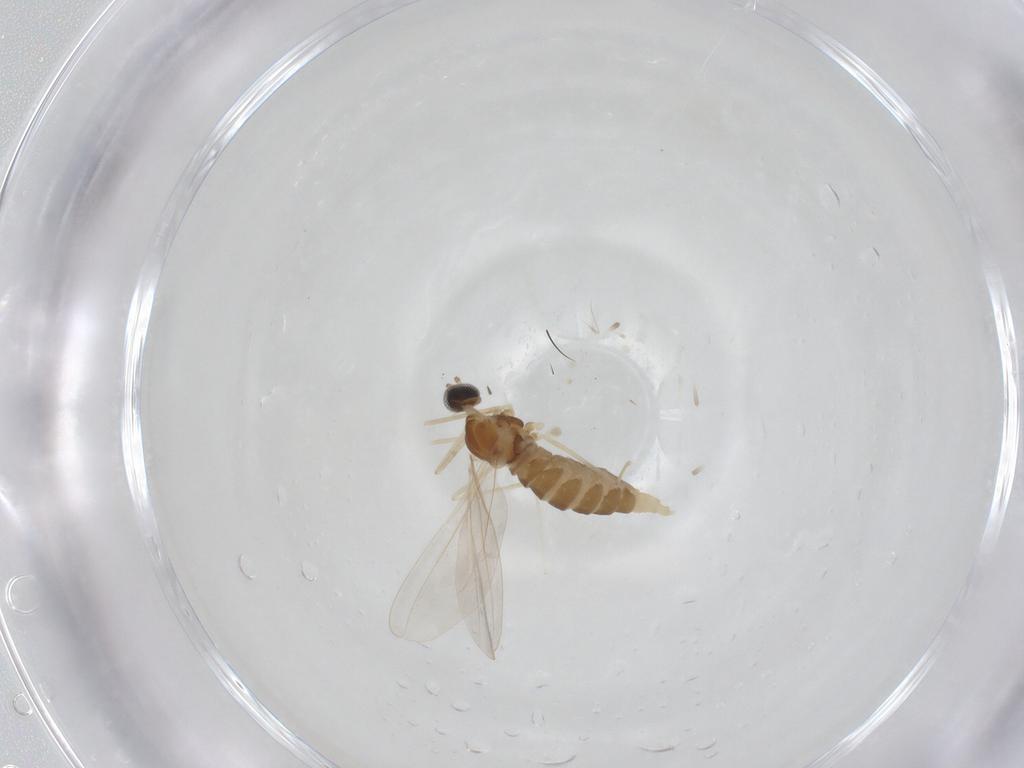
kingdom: Animalia
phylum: Arthropoda
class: Insecta
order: Diptera
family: Cecidomyiidae
